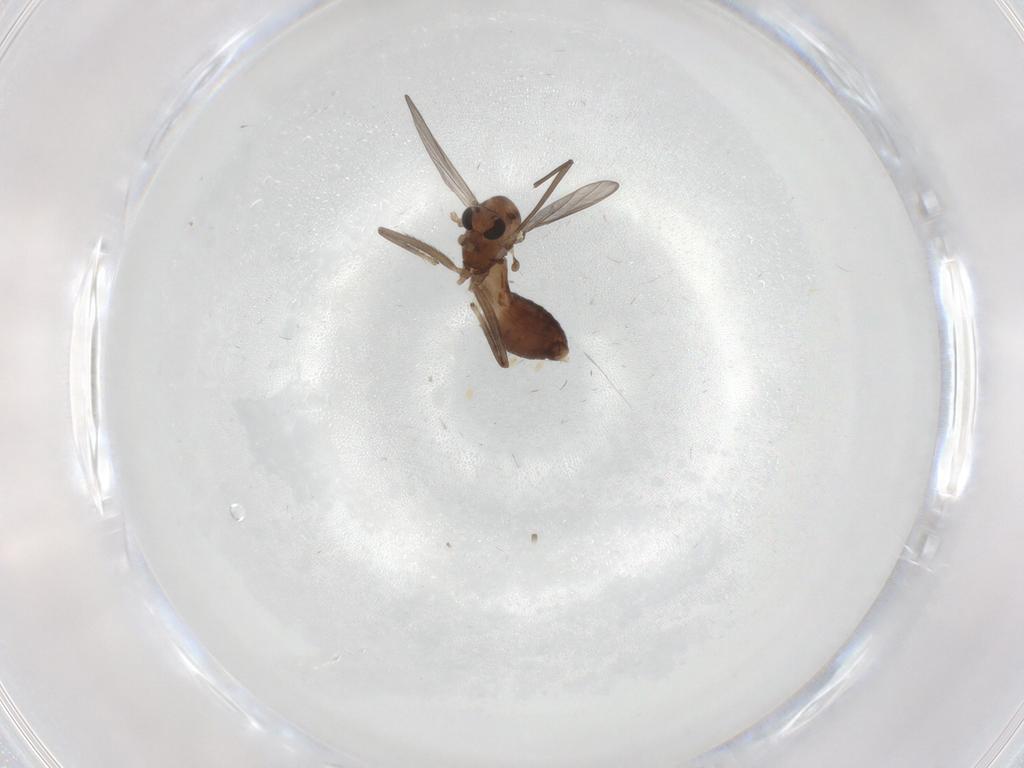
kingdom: Animalia
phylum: Arthropoda
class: Insecta
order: Diptera
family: Chironomidae
